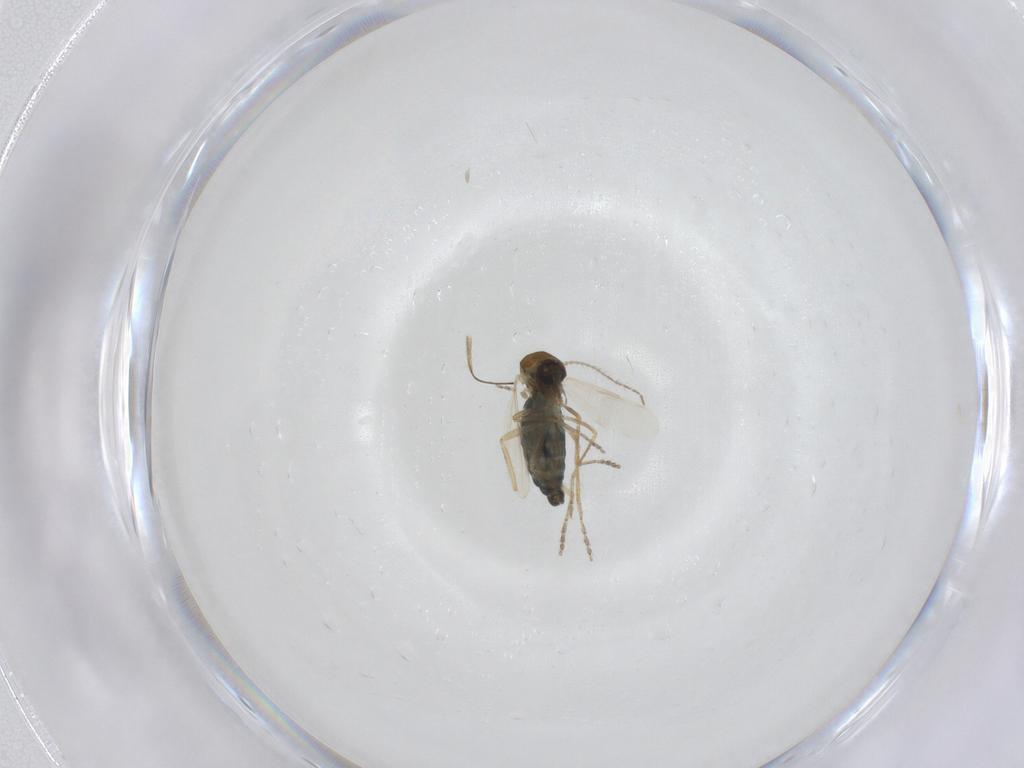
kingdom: Animalia
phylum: Arthropoda
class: Insecta
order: Diptera
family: Ceratopogonidae
